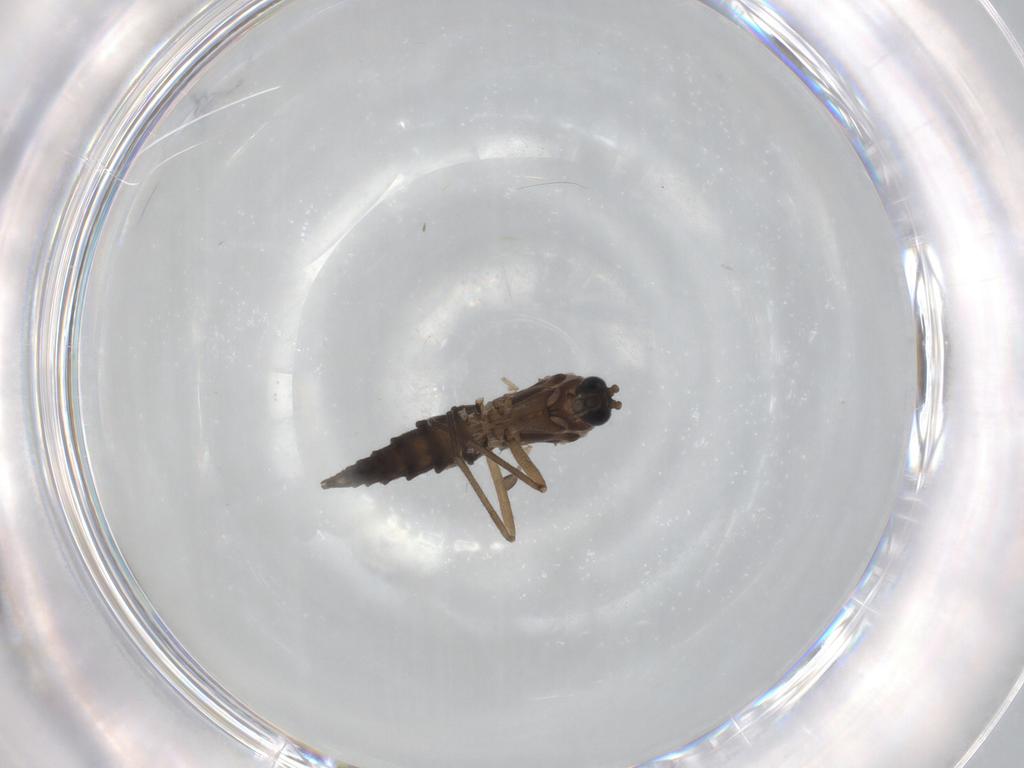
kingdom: Animalia
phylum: Arthropoda
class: Insecta
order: Diptera
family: Sciaridae
